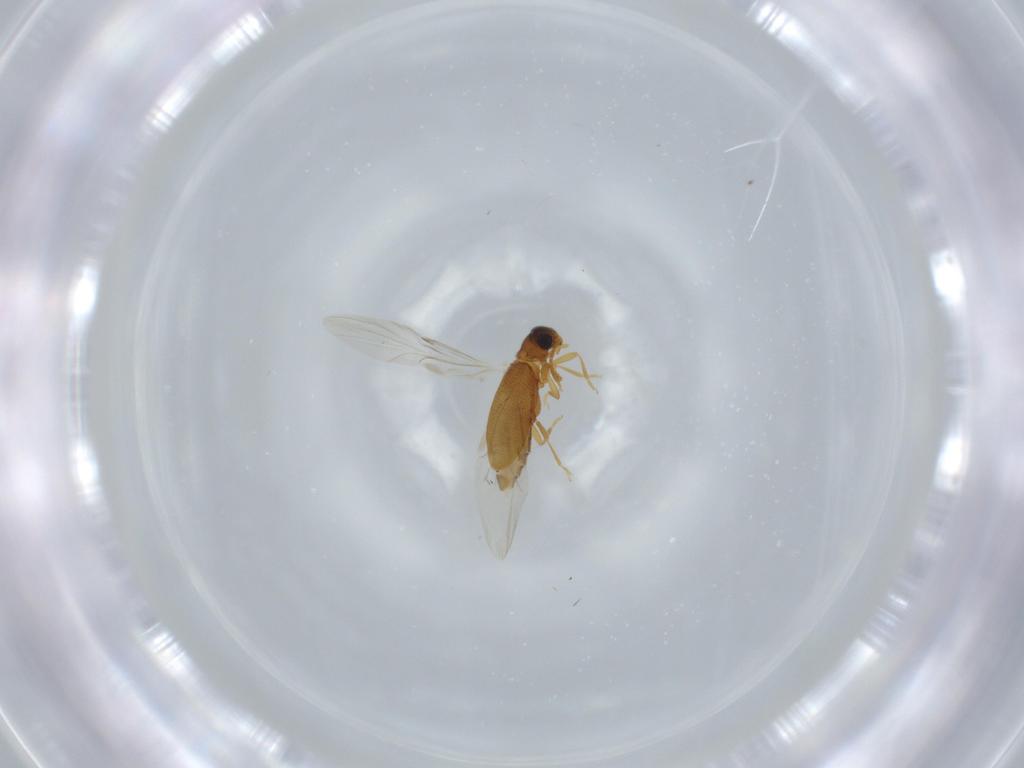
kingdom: Animalia
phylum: Arthropoda
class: Insecta
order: Coleoptera
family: Aderidae
